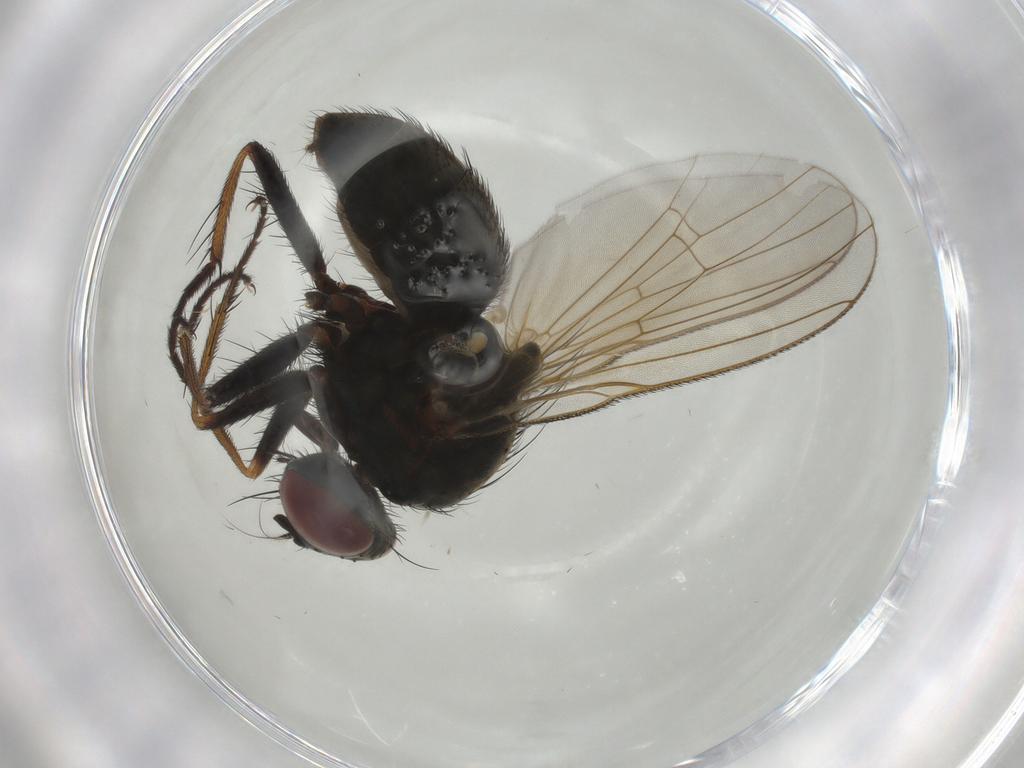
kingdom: Animalia
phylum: Arthropoda
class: Insecta
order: Diptera
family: Muscidae
